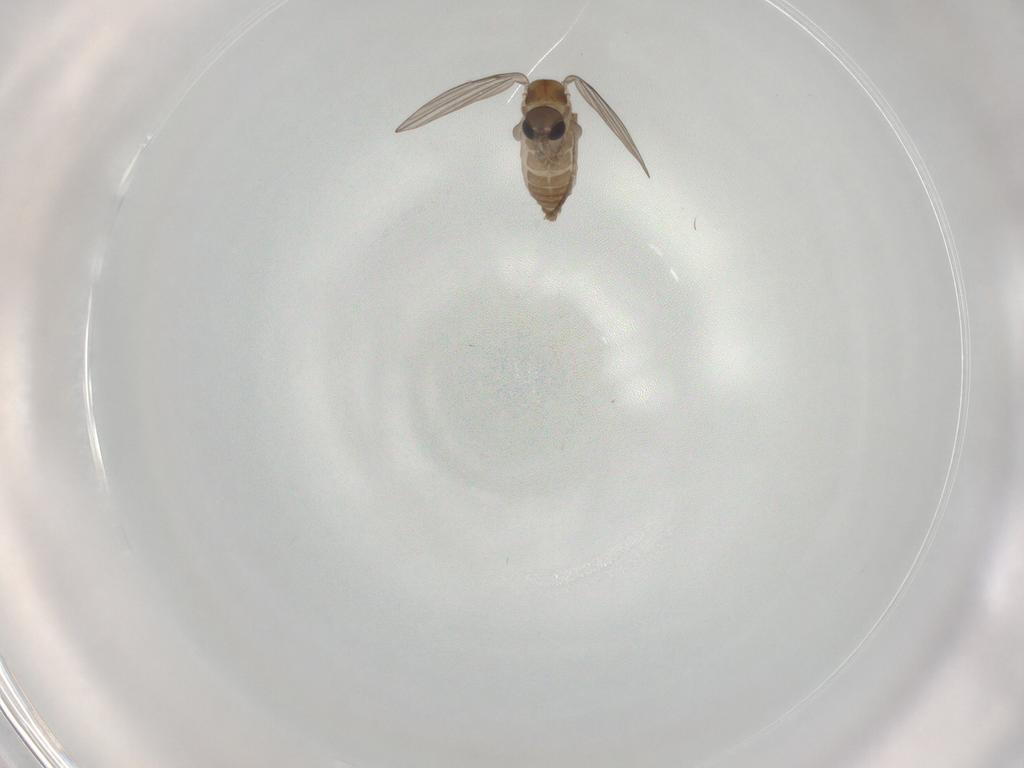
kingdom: Animalia
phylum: Arthropoda
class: Insecta
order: Diptera
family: Psychodidae
